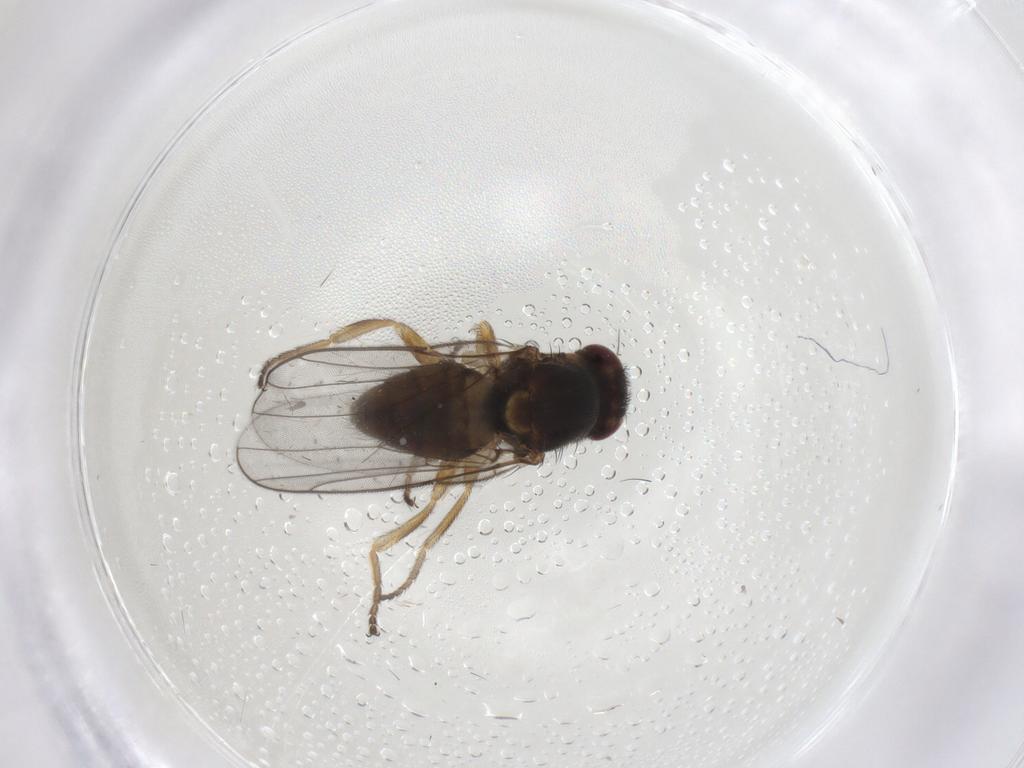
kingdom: Animalia
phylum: Arthropoda
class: Insecta
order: Diptera
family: Chloropidae
